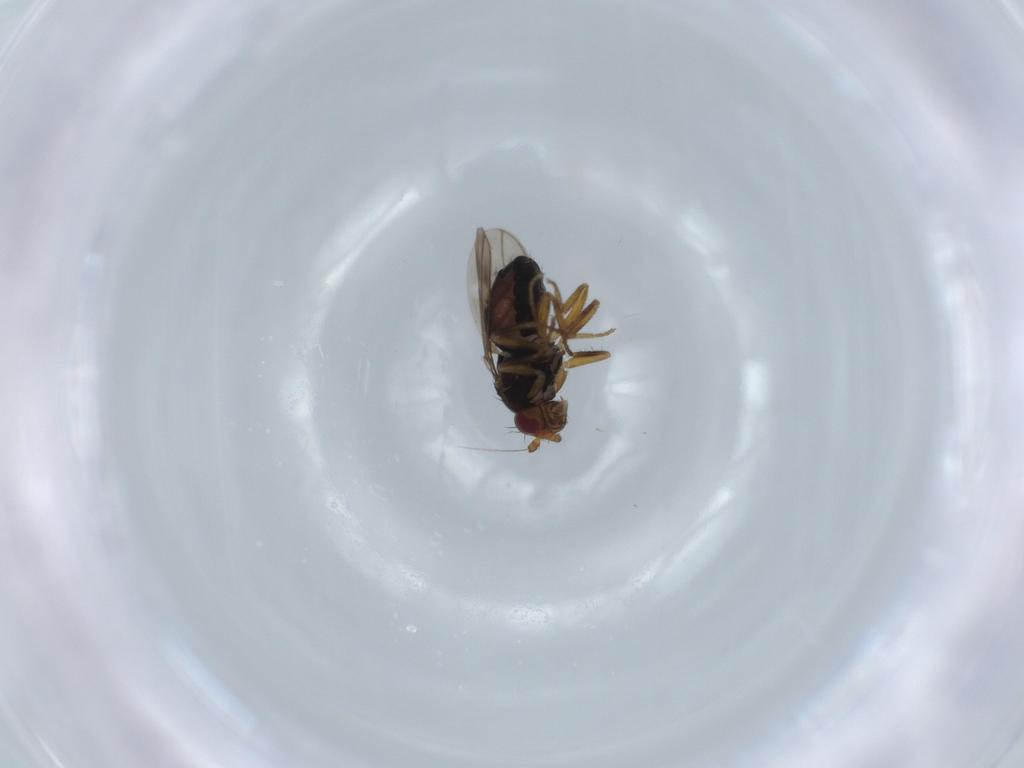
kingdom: Animalia
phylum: Arthropoda
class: Insecta
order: Diptera
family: Sphaeroceridae
